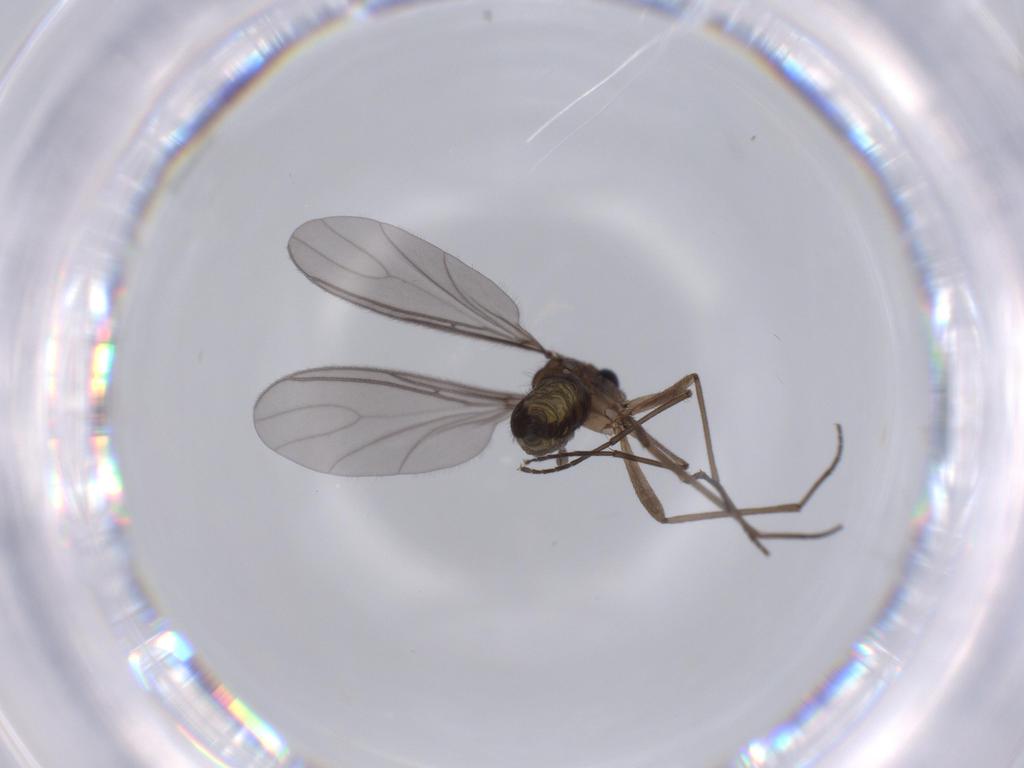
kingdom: Animalia
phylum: Arthropoda
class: Insecta
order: Diptera
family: Sciaridae
